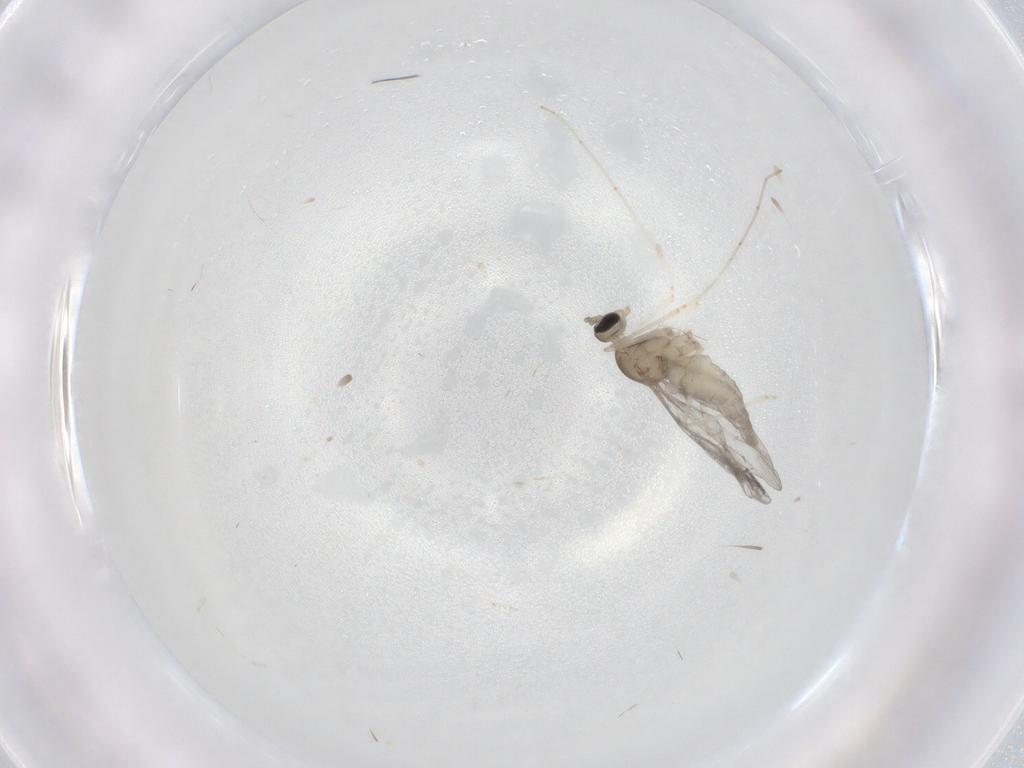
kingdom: Animalia
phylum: Arthropoda
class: Insecta
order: Diptera
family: Cecidomyiidae
